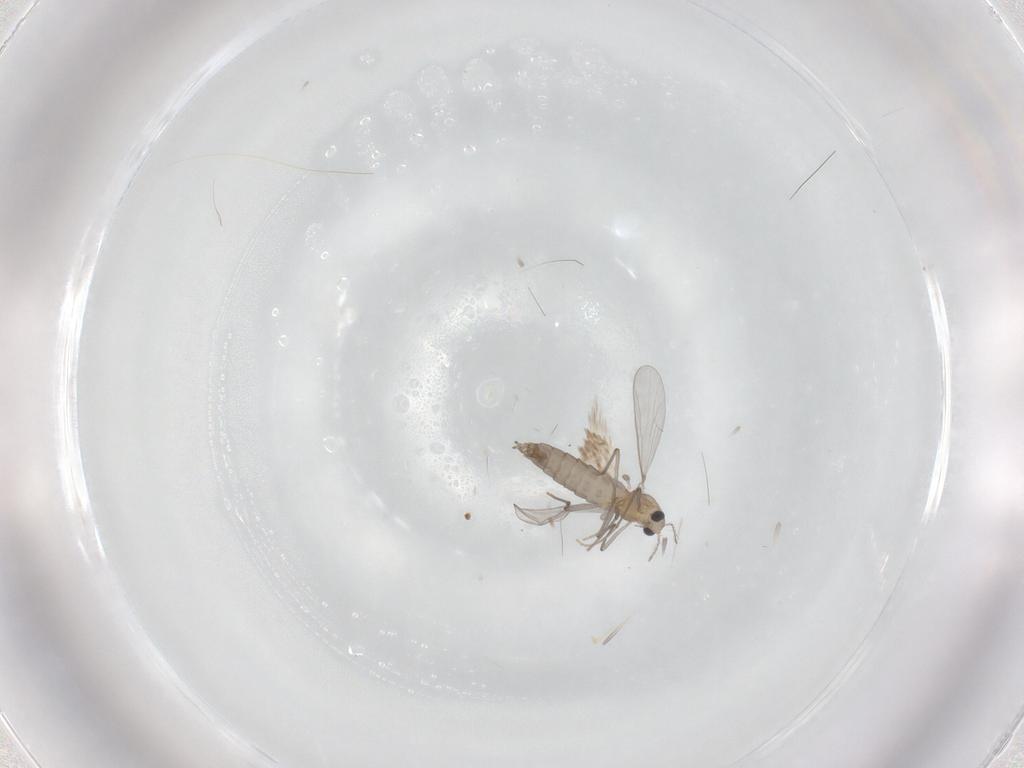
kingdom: Animalia
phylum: Arthropoda
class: Insecta
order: Diptera
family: Chironomidae
